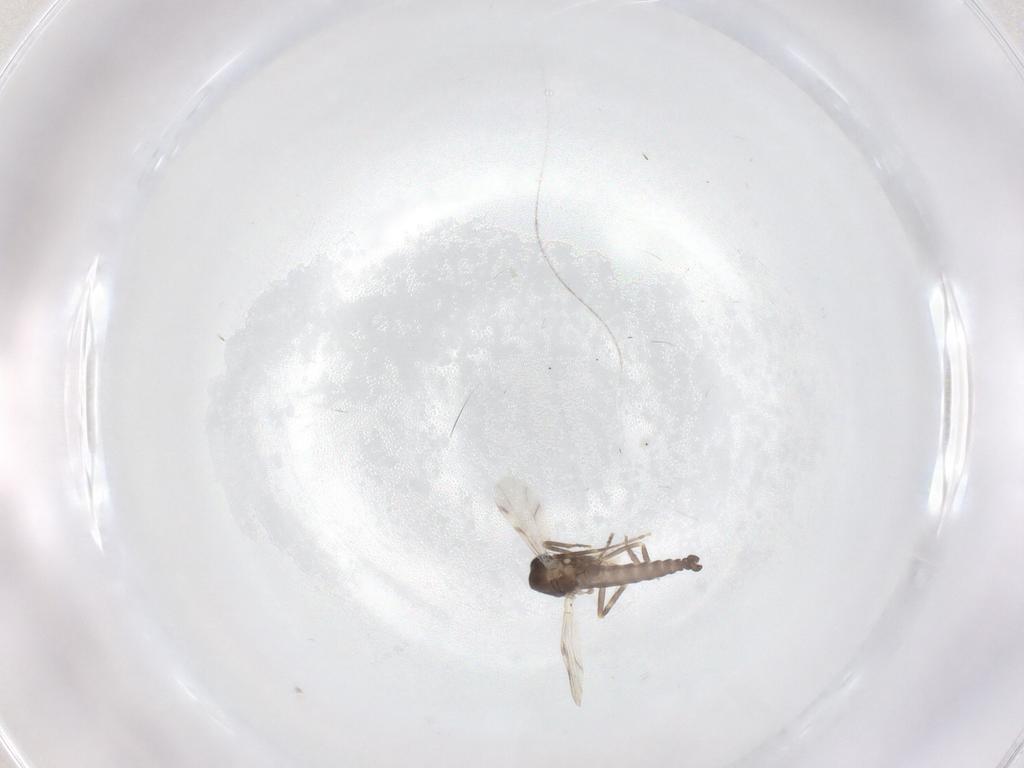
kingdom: Animalia
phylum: Arthropoda
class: Insecta
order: Diptera
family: Ceratopogonidae
